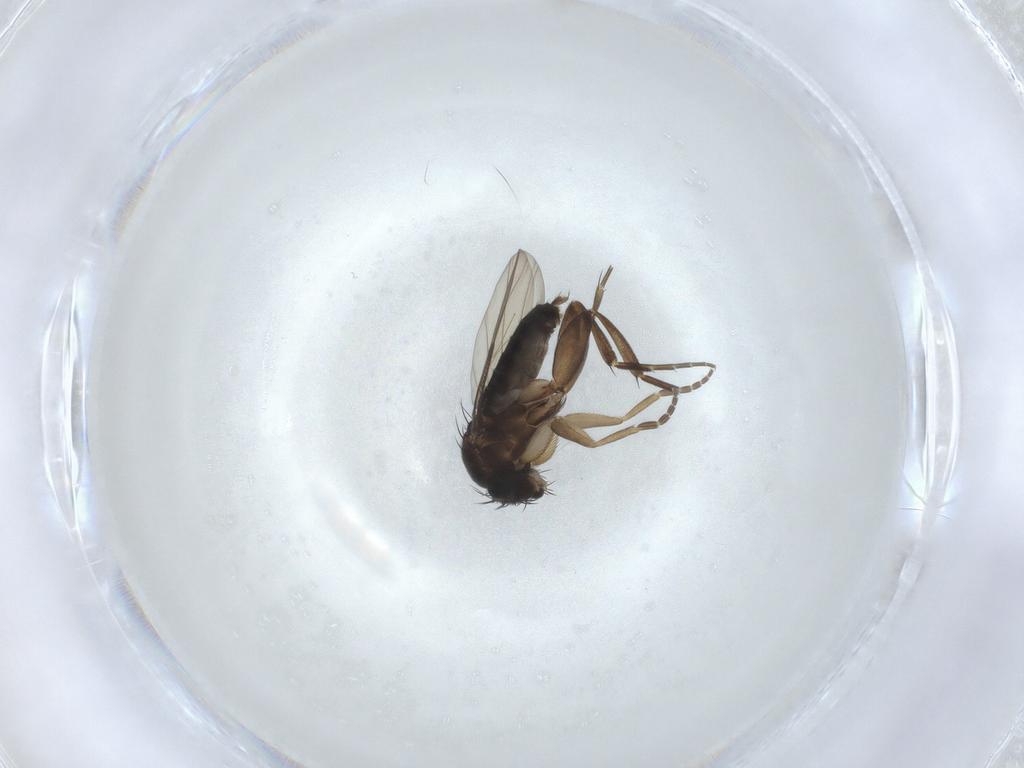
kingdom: Animalia
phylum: Arthropoda
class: Insecta
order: Diptera
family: Phoridae
